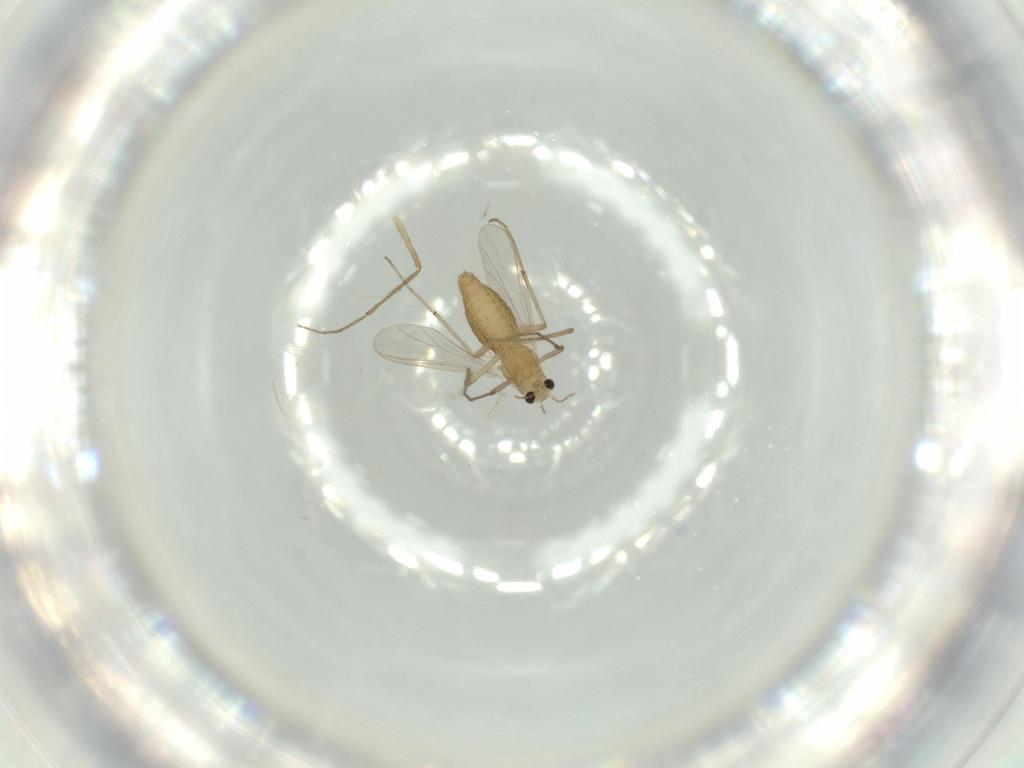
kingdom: Animalia
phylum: Arthropoda
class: Insecta
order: Diptera
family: Chironomidae
